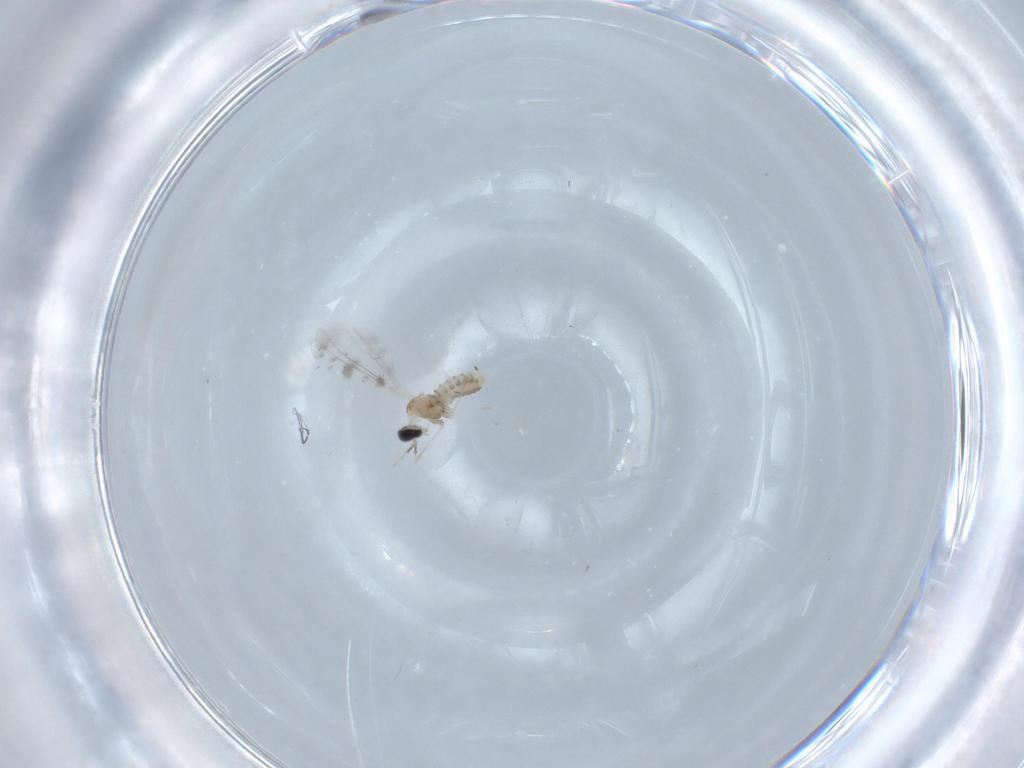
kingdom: Animalia
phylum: Arthropoda
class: Insecta
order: Diptera
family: Cecidomyiidae
